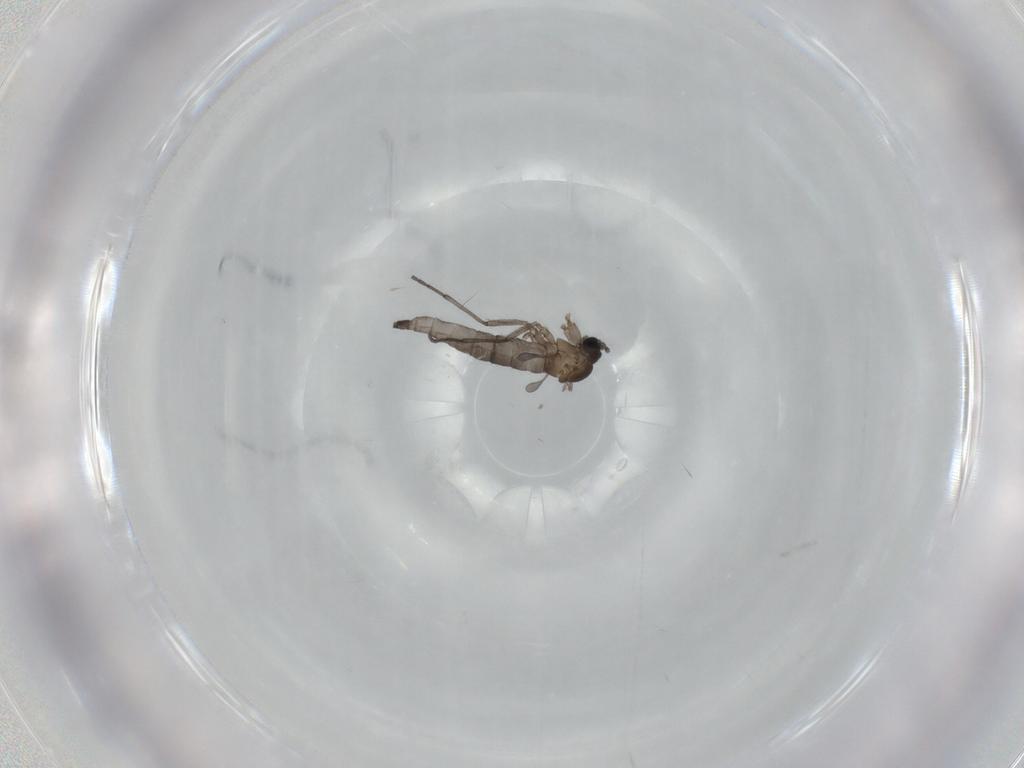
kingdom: Animalia
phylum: Arthropoda
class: Insecta
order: Diptera
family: Sciaridae
